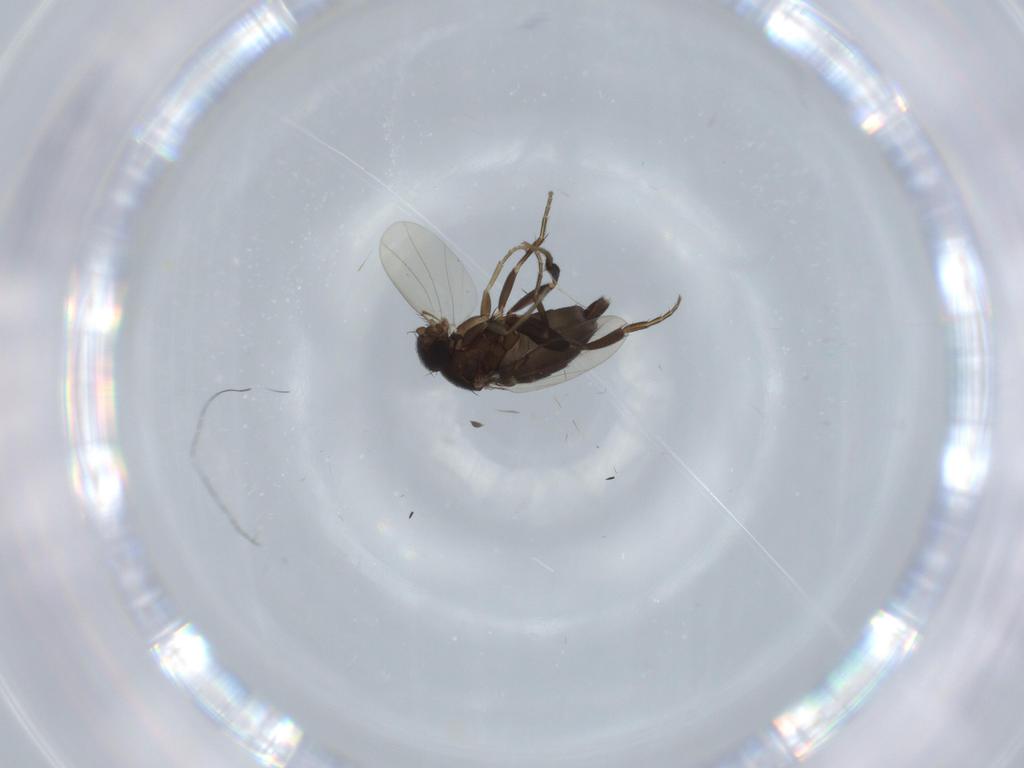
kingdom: Animalia
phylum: Arthropoda
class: Insecta
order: Diptera
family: Phoridae
